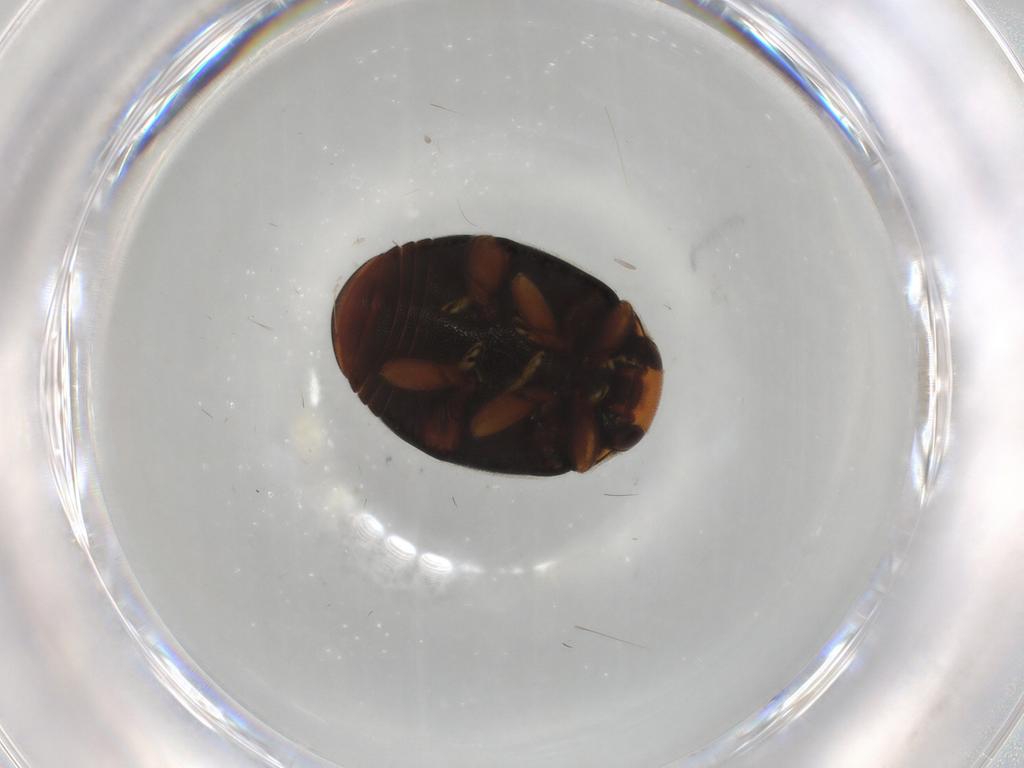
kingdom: Animalia
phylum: Arthropoda
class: Insecta
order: Coleoptera
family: Coccinellidae
